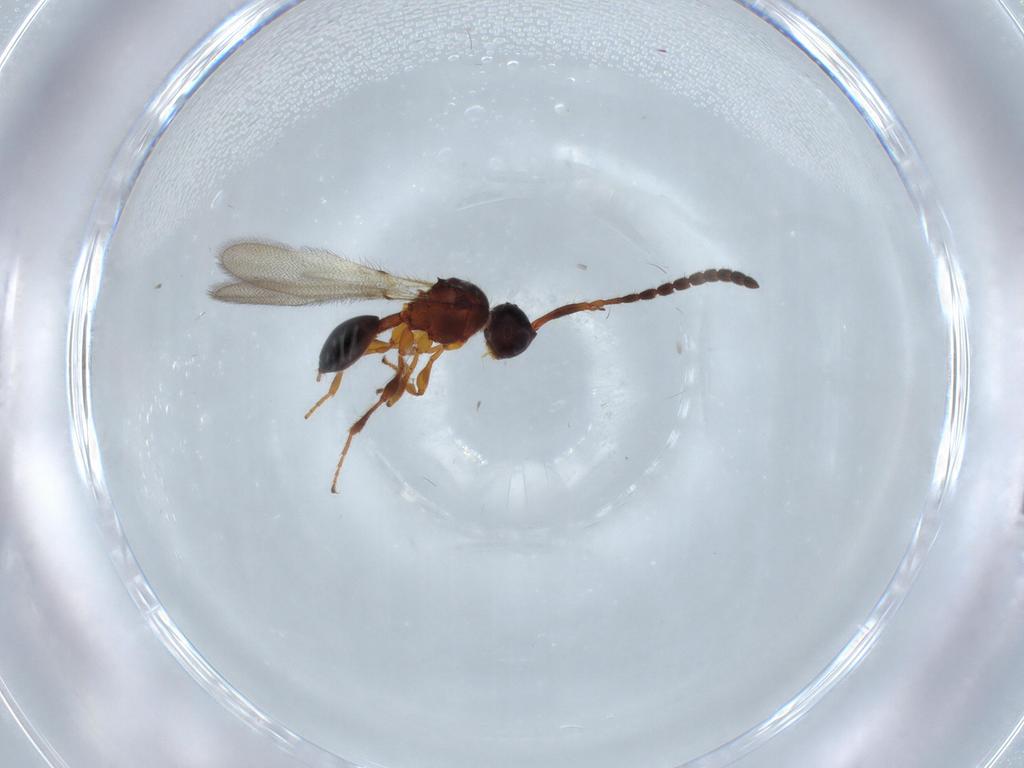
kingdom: Animalia
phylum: Arthropoda
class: Insecta
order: Hymenoptera
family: Diapriidae
